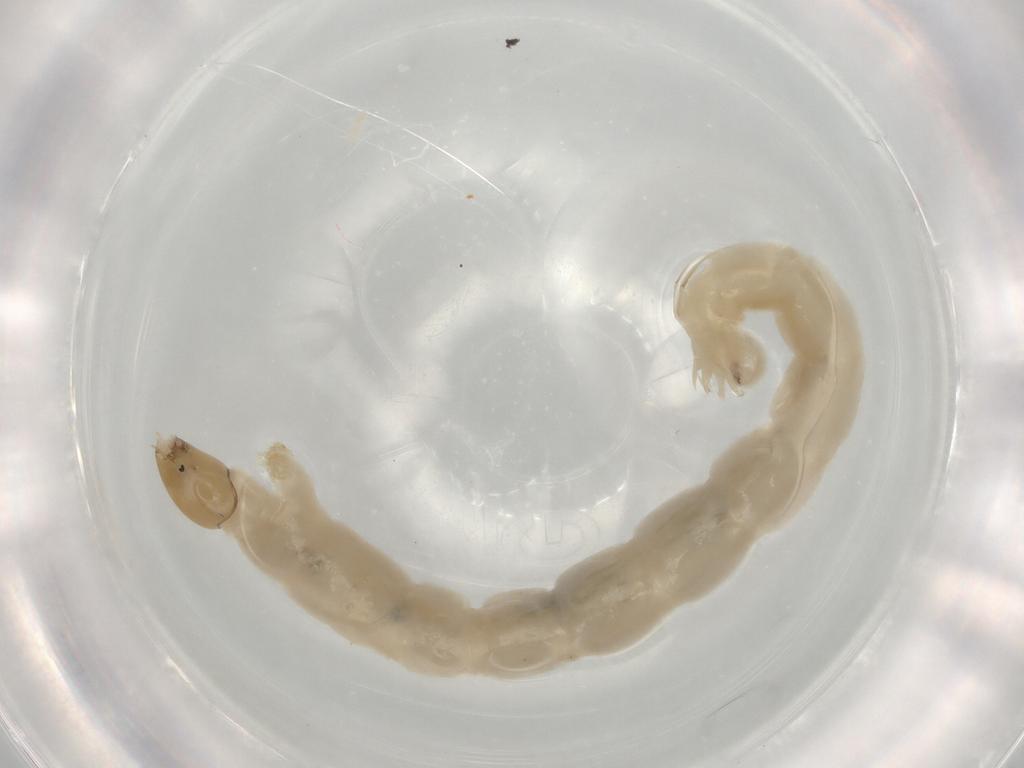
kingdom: Animalia
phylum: Arthropoda
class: Insecta
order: Diptera
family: Chironomidae
